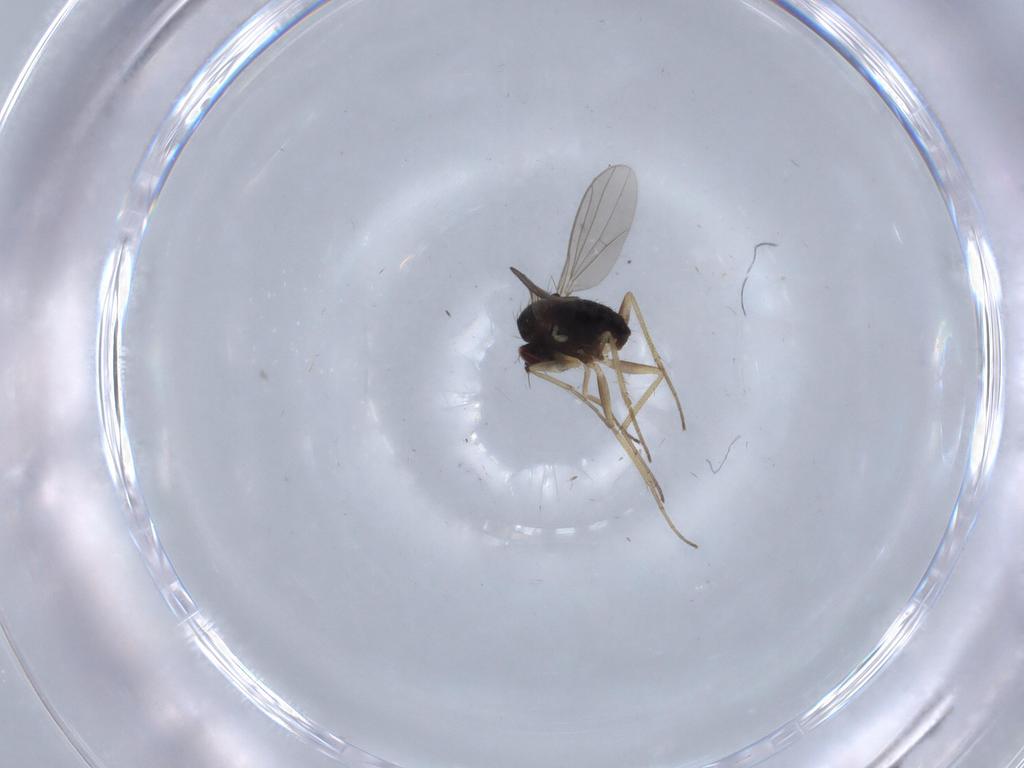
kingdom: Animalia
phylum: Arthropoda
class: Insecta
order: Diptera
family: Dolichopodidae
